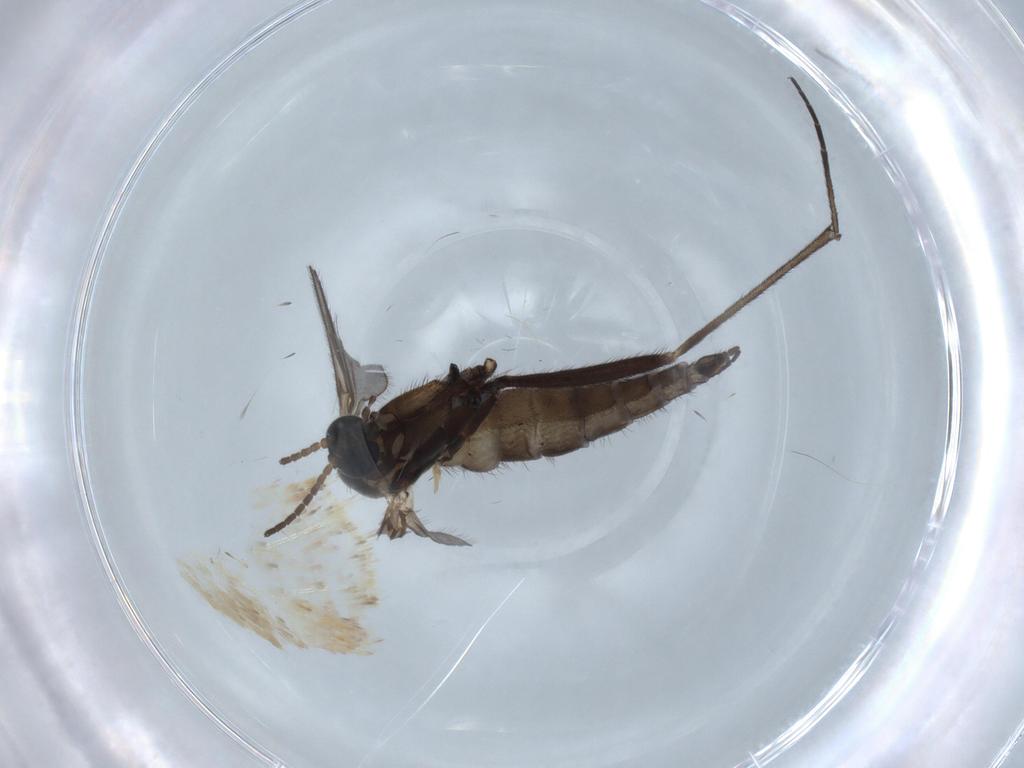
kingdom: Animalia
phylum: Arthropoda
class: Insecta
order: Diptera
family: Sciaridae
